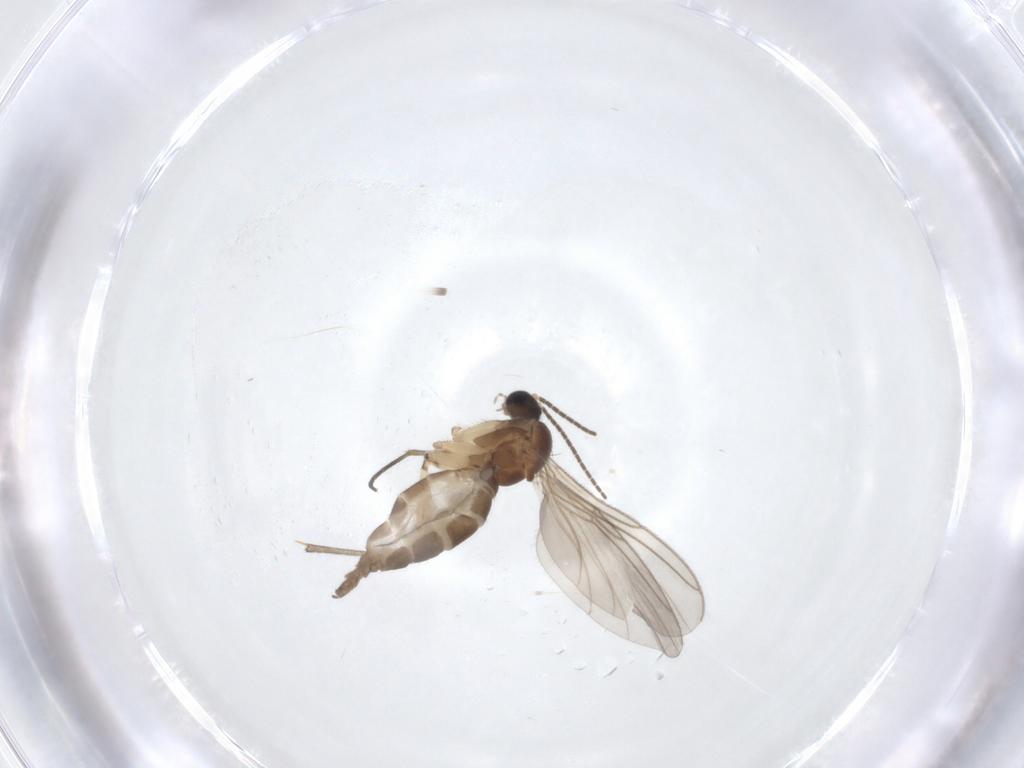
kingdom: Animalia
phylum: Arthropoda
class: Insecta
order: Diptera
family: Sciaridae
